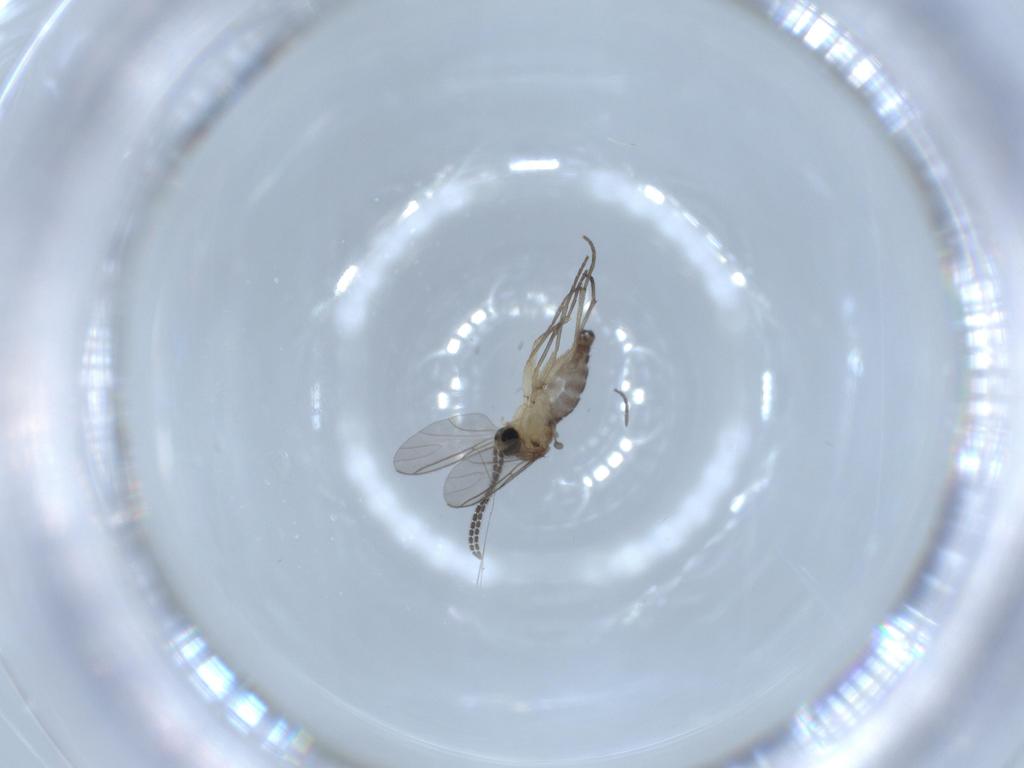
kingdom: Animalia
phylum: Arthropoda
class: Insecta
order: Diptera
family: Sciaridae
